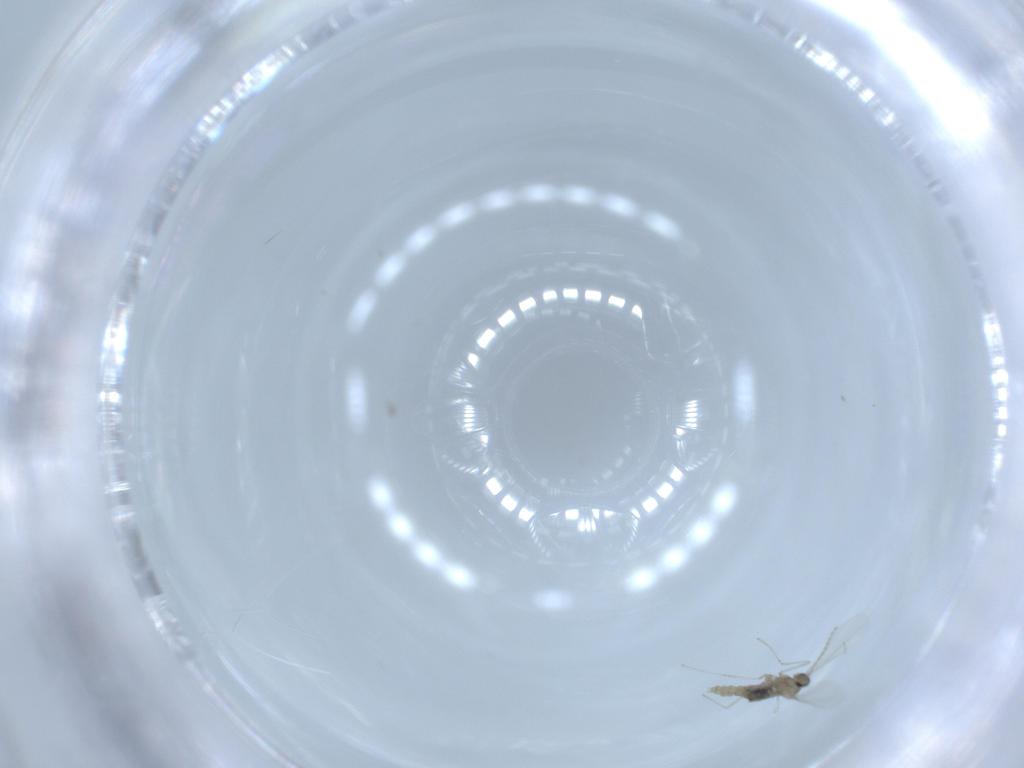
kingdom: Animalia
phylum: Arthropoda
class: Insecta
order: Diptera
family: Cecidomyiidae
